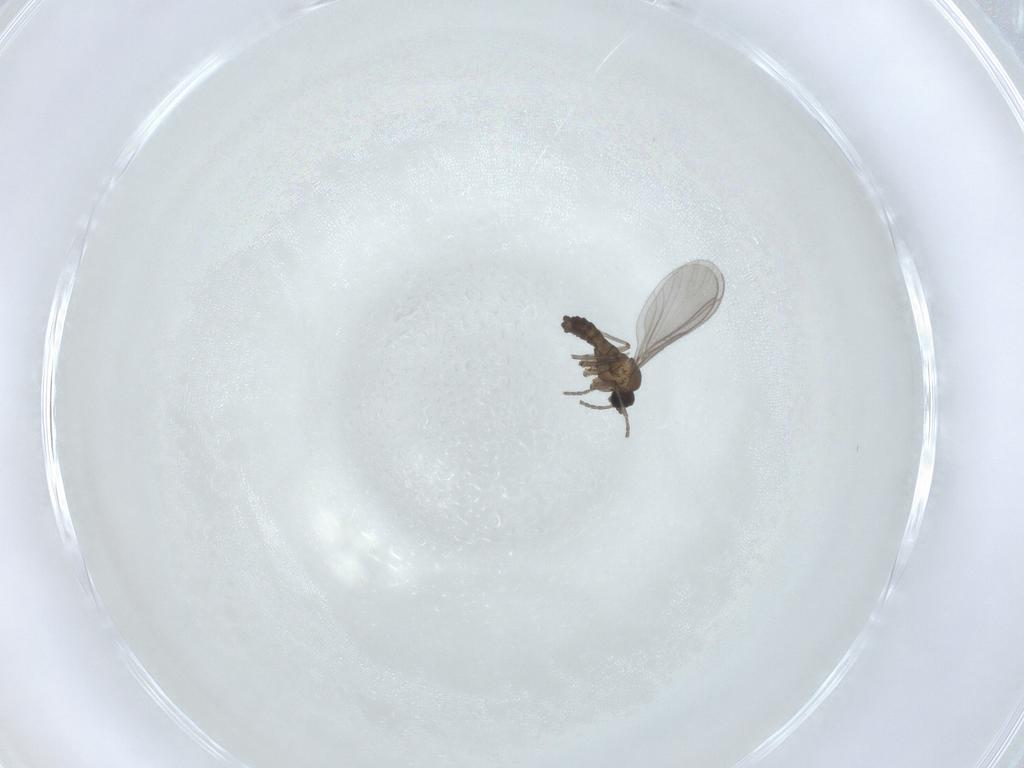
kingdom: Animalia
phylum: Arthropoda
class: Insecta
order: Diptera
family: Sciaridae
